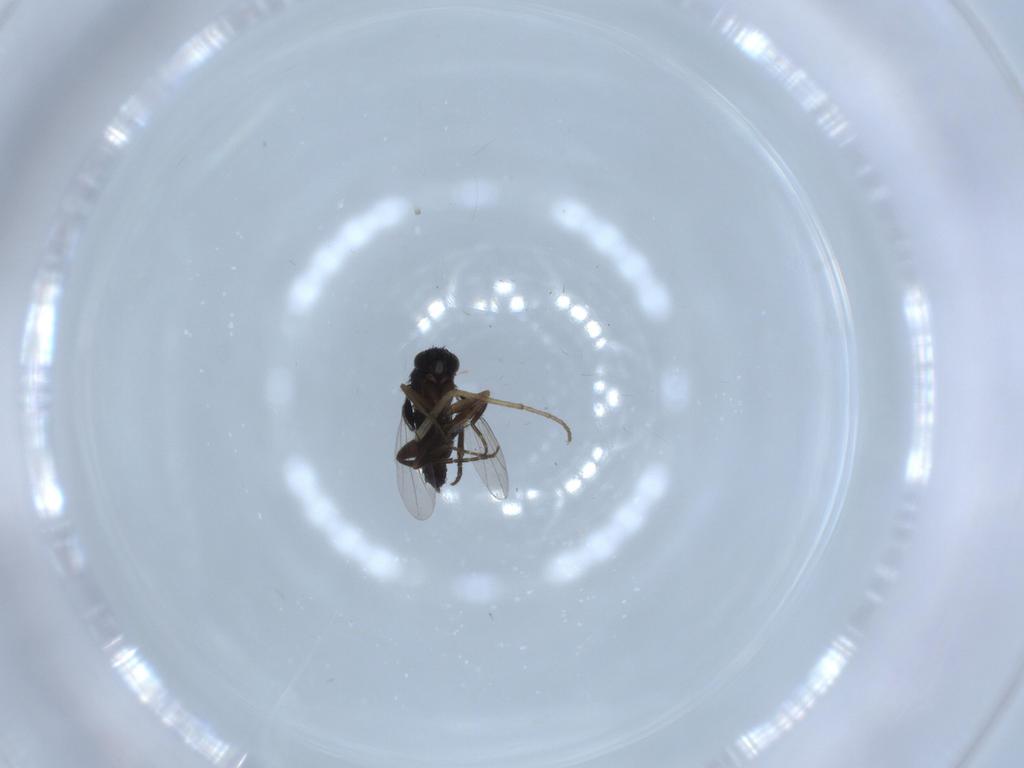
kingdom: Animalia
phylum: Arthropoda
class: Insecta
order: Diptera
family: Phoridae
